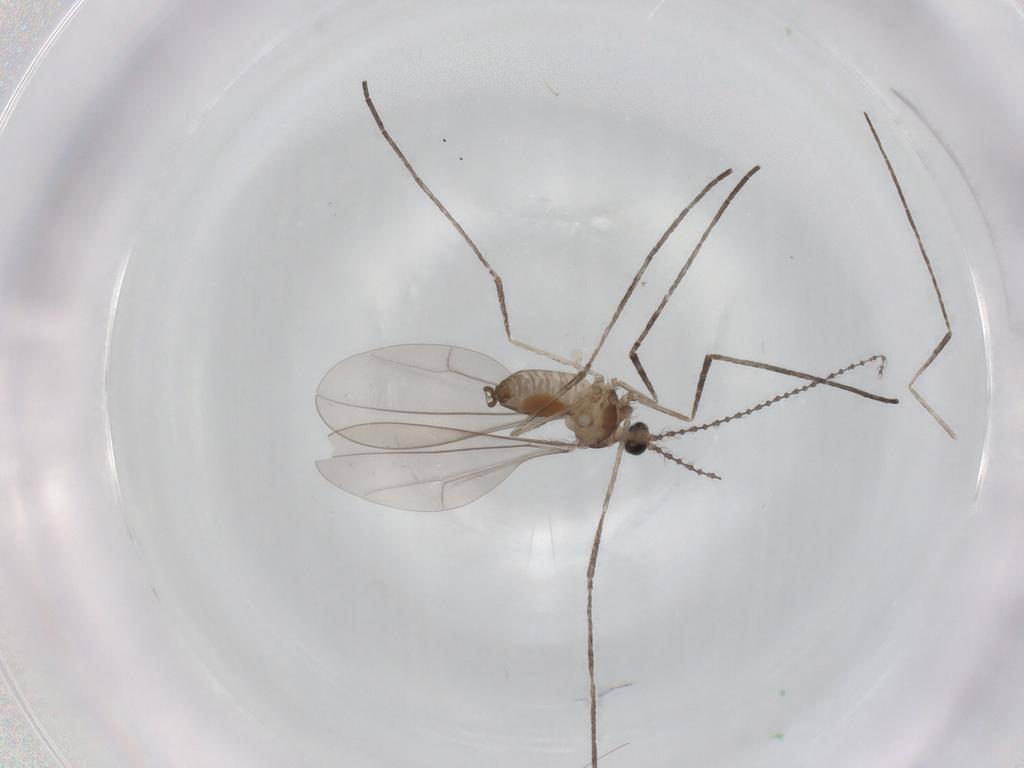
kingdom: Animalia
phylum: Arthropoda
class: Insecta
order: Diptera
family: Cecidomyiidae
